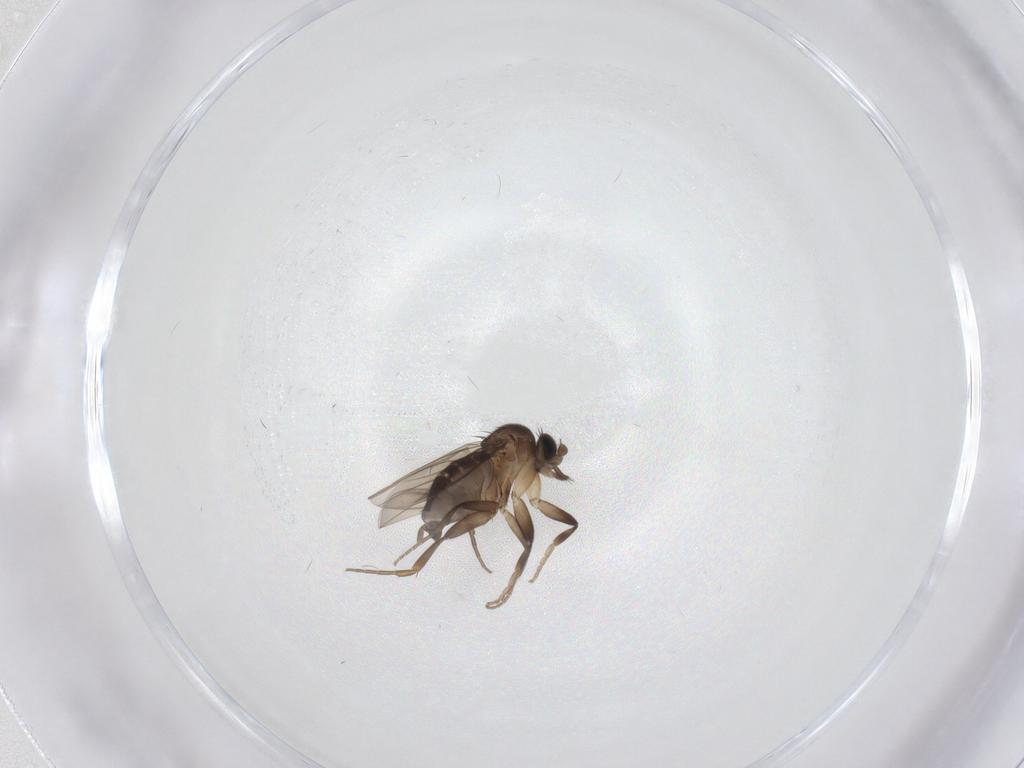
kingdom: Animalia
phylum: Arthropoda
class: Insecta
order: Diptera
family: Phoridae
